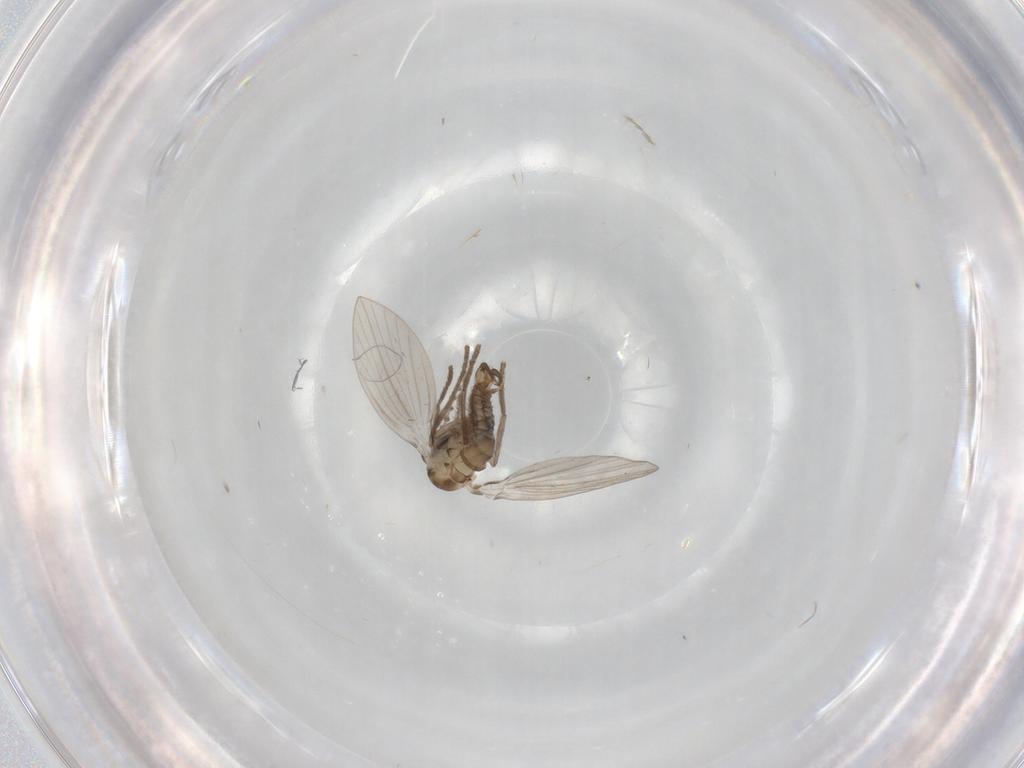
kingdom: Animalia
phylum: Arthropoda
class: Insecta
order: Diptera
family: Drosophilidae
